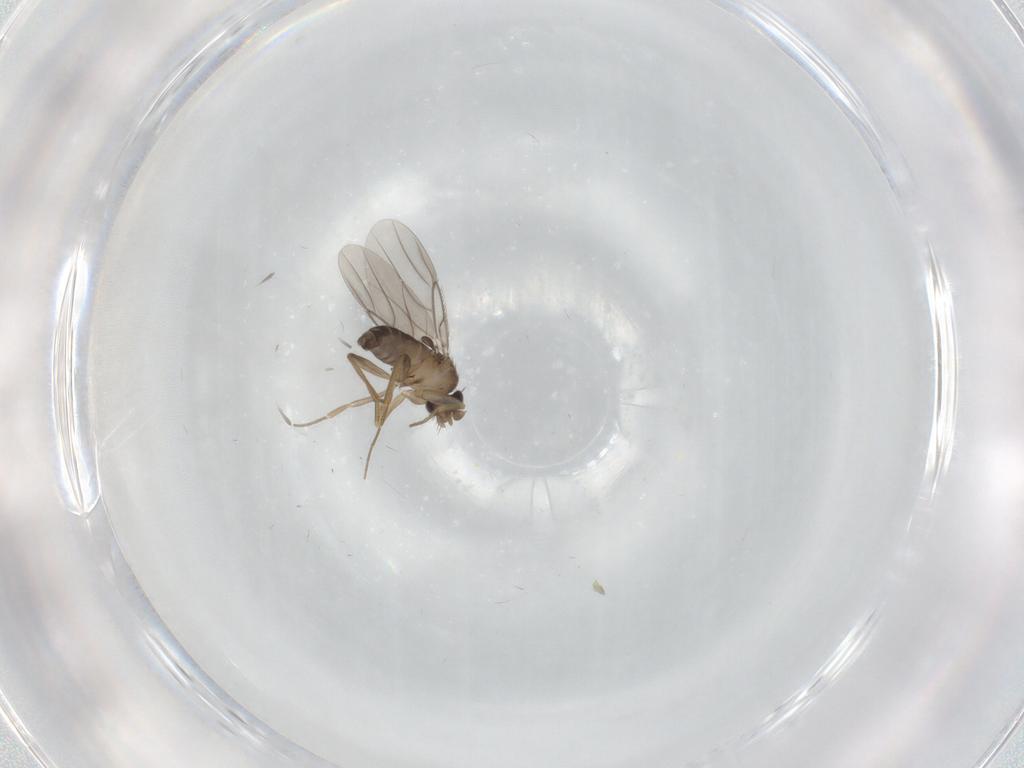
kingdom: Animalia
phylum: Arthropoda
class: Insecta
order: Diptera
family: Phoridae
